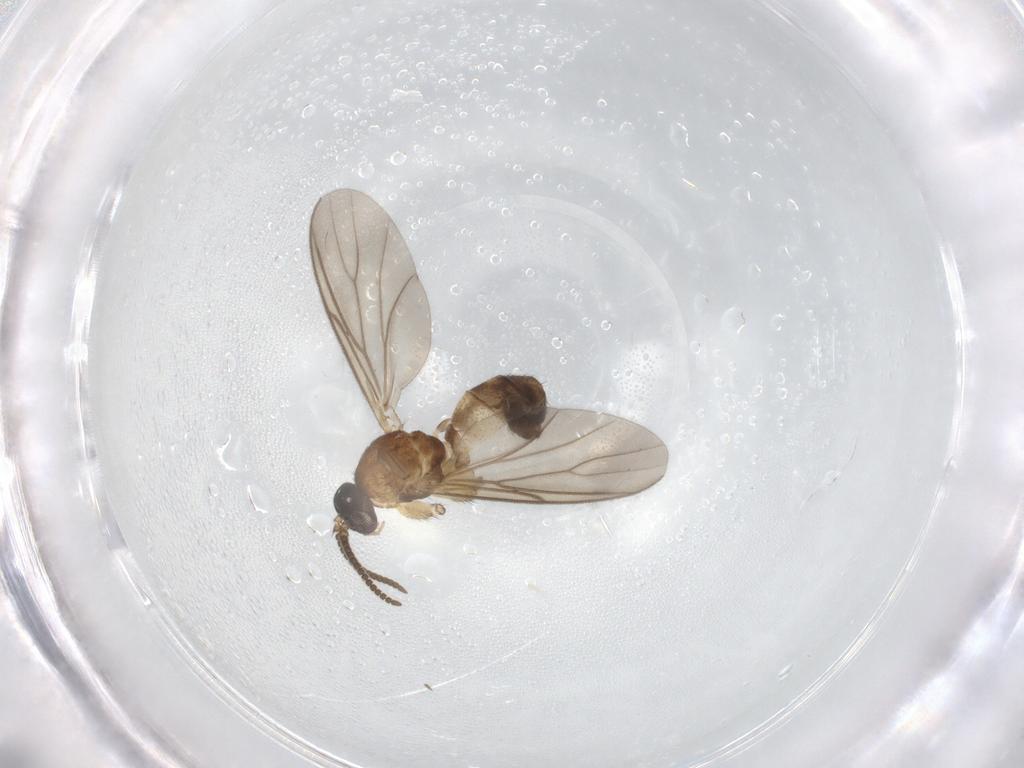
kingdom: Animalia
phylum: Arthropoda
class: Insecta
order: Diptera
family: Mycetophilidae
